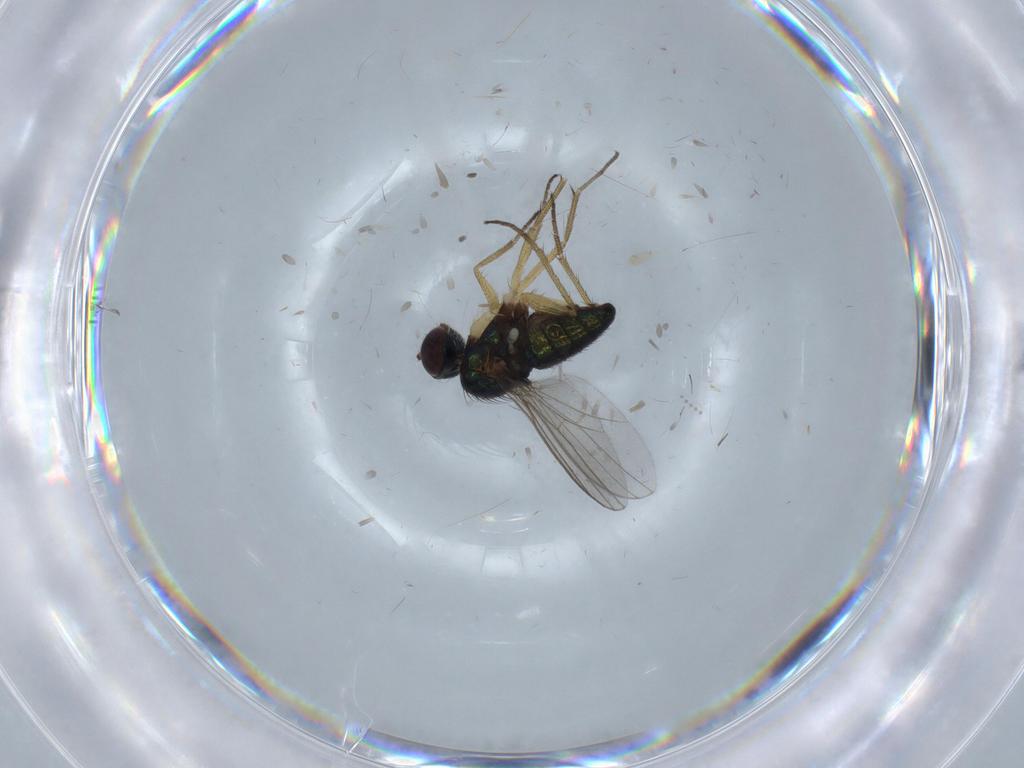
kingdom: Animalia
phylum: Arthropoda
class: Insecta
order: Diptera
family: Psychodidae
